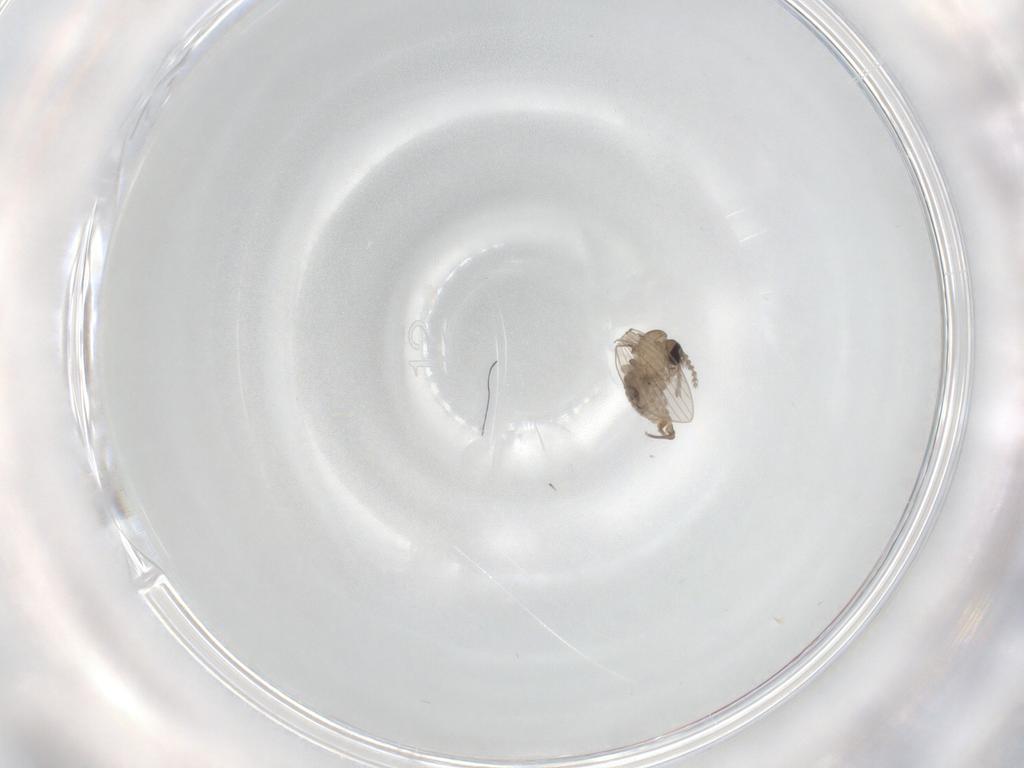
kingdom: Animalia
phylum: Arthropoda
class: Insecta
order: Diptera
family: Psychodidae
